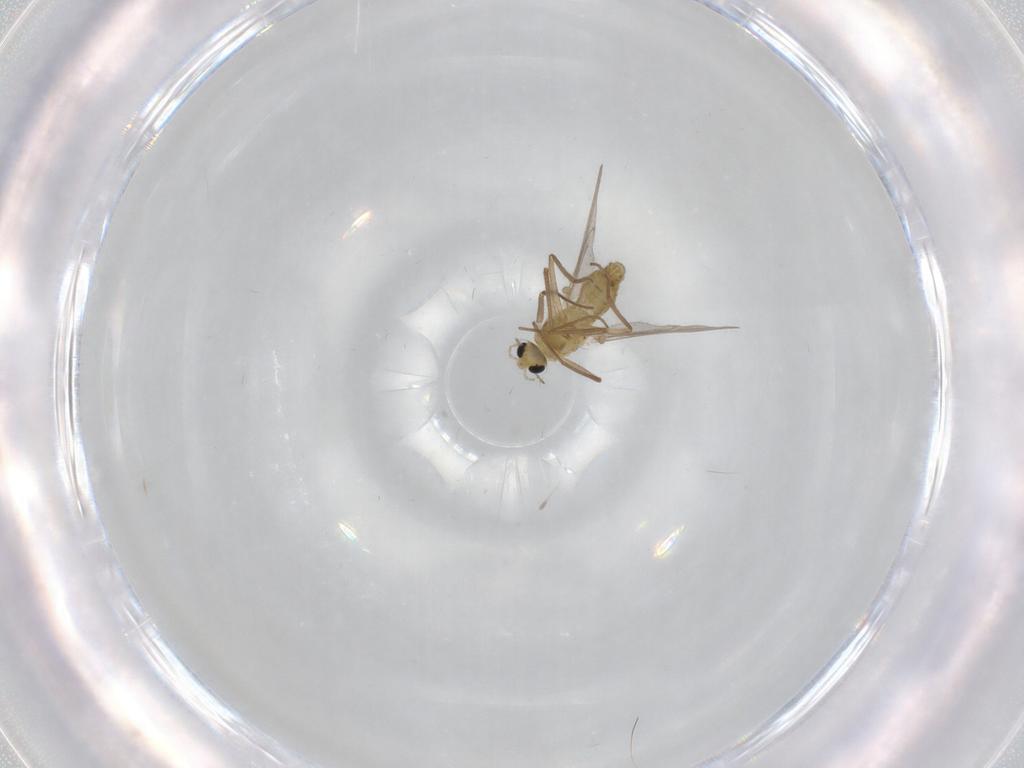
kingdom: Animalia
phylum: Arthropoda
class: Insecta
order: Diptera
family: Chironomidae
